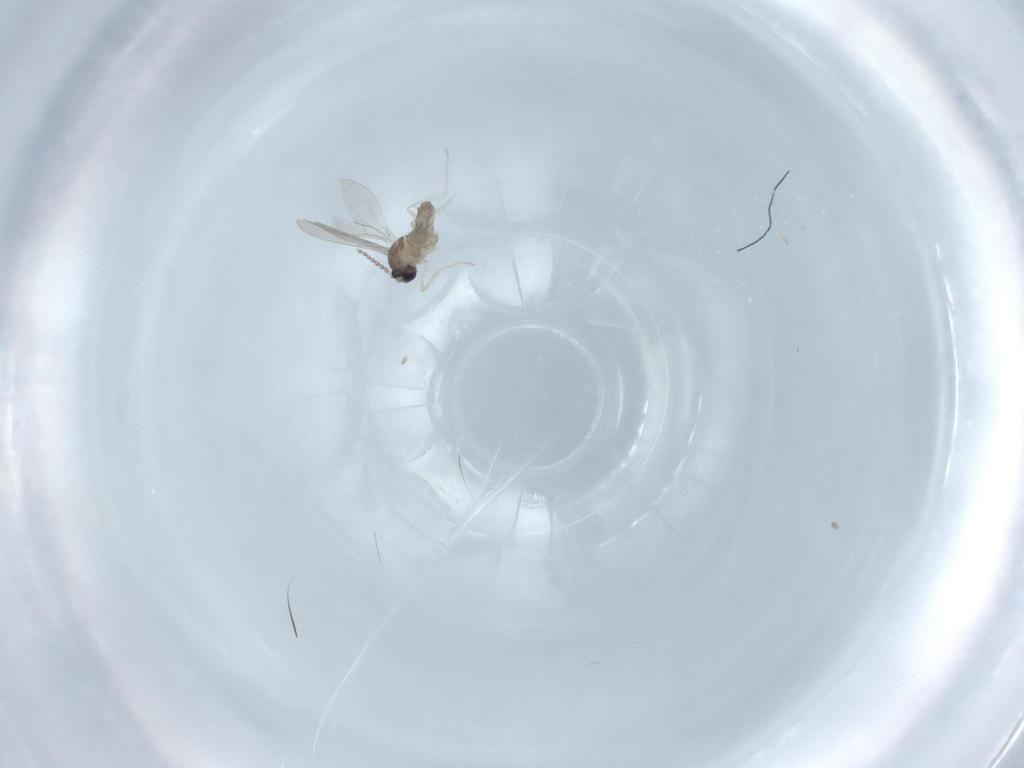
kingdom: Animalia
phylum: Arthropoda
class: Insecta
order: Diptera
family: Cecidomyiidae
